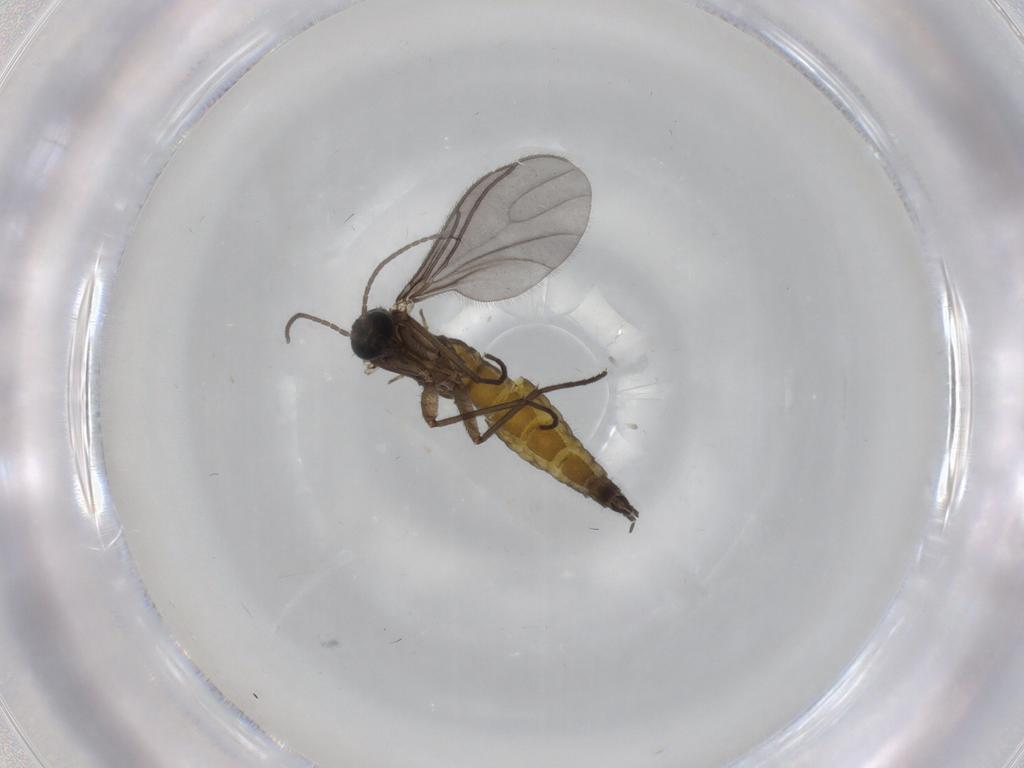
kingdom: Animalia
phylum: Arthropoda
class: Insecta
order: Diptera
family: Sciaridae
